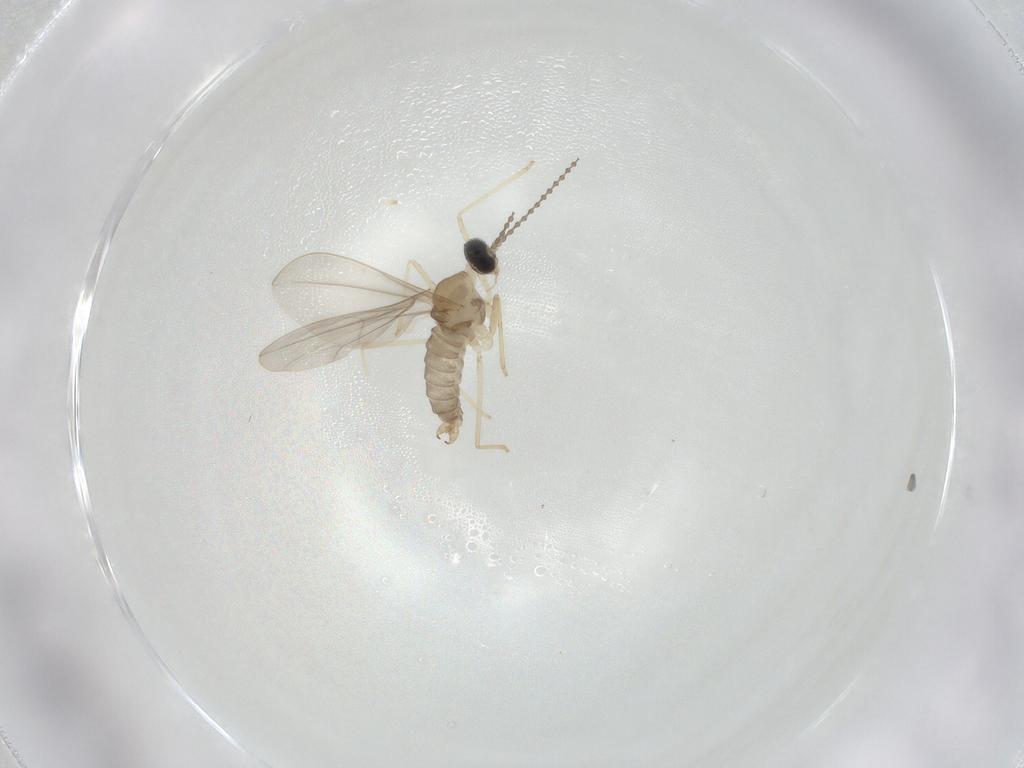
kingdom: Animalia
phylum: Arthropoda
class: Insecta
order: Diptera
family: Cecidomyiidae
